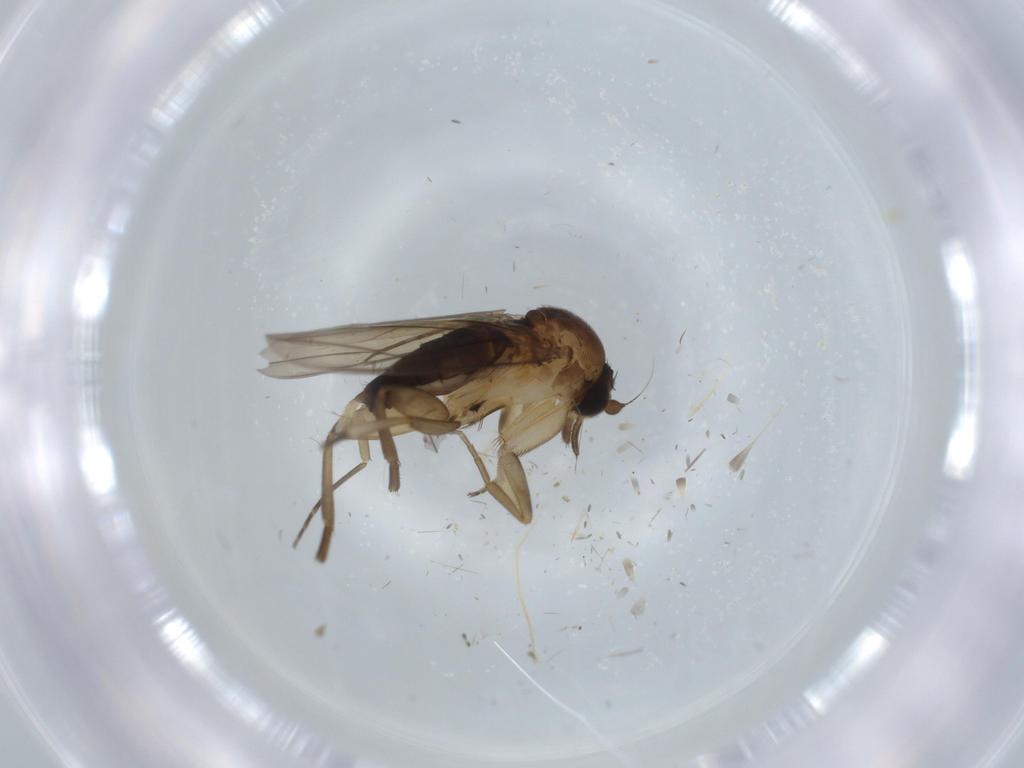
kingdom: Animalia
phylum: Arthropoda
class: Insecta
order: Diptera
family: Phoridae
